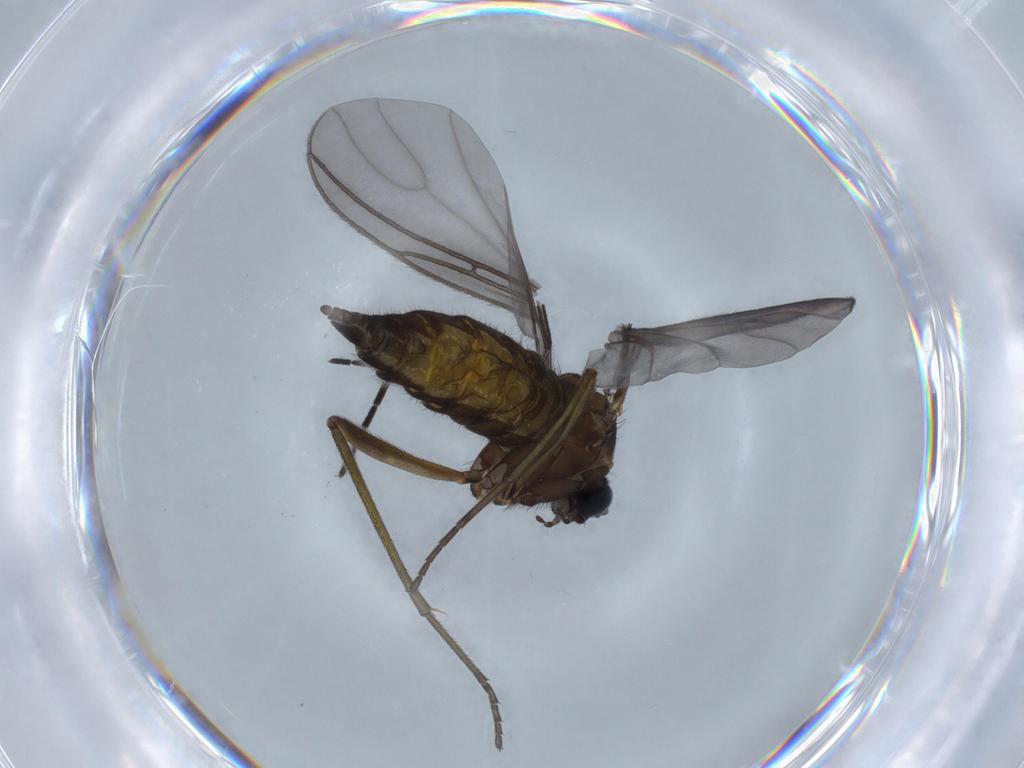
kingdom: Animalia
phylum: Arthropoda
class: Insecta
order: Diptera
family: Sciaridae
